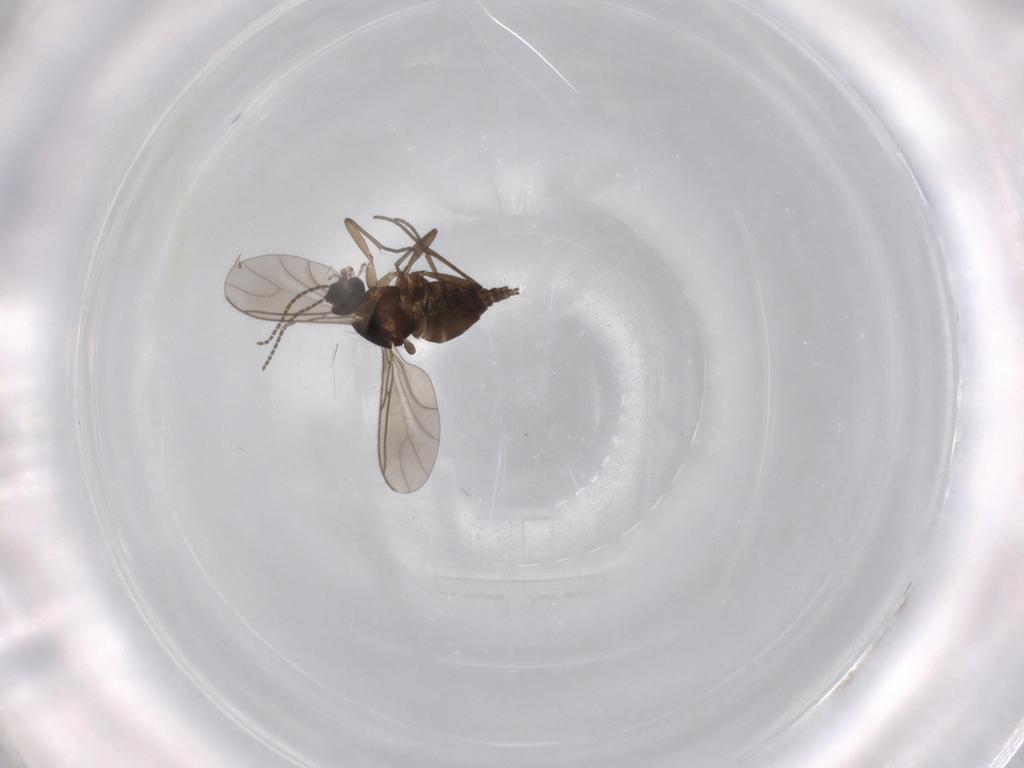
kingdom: Animalia
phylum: Arthropoda
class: Insecta
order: Diptera
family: Sciaridae
